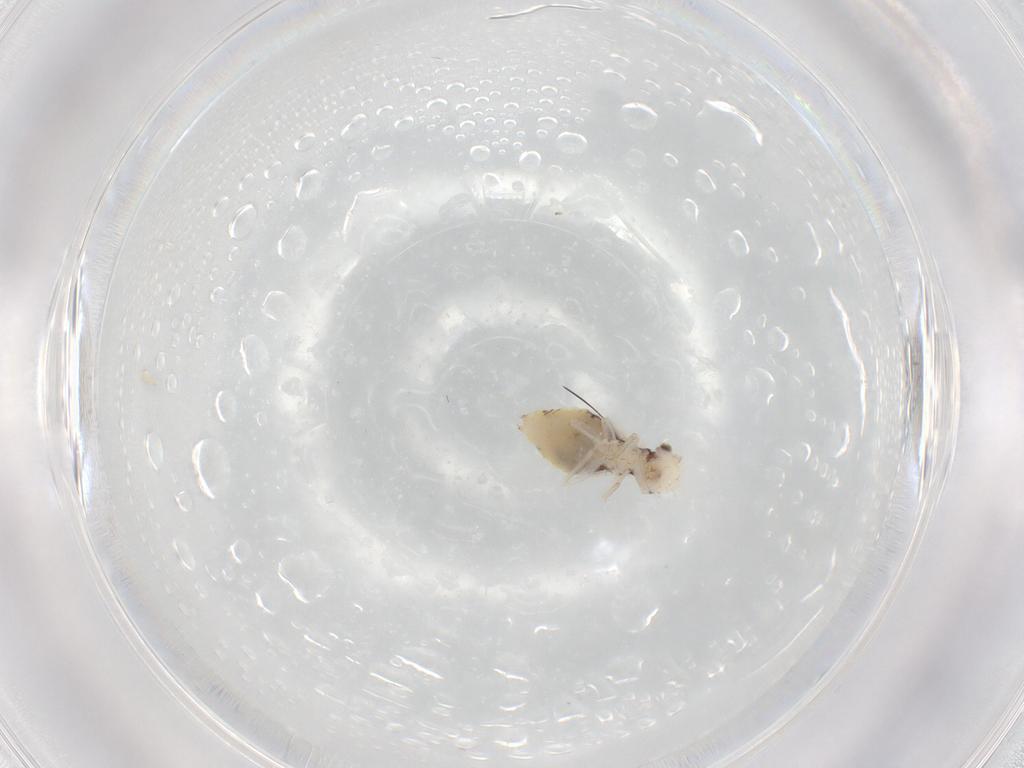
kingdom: Animalia
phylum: Arthropoda
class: Insecta
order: Psocodea
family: Pseudocaeciliidae
